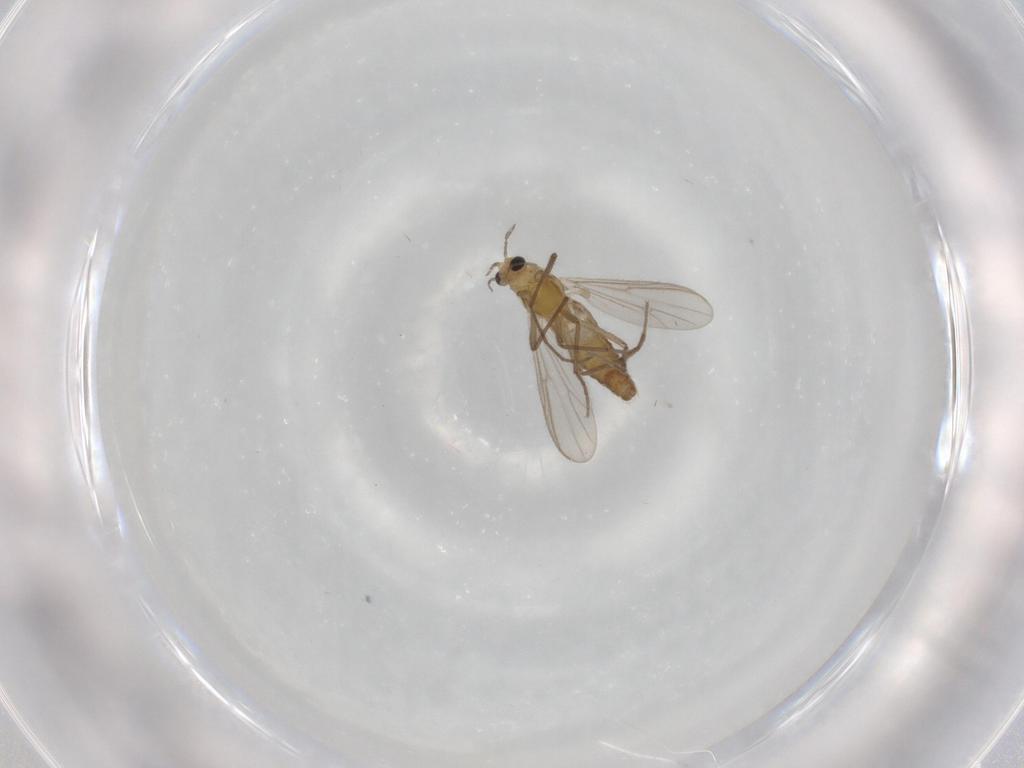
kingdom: Animalia
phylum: Arthropoda
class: Insecta
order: Diptera
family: Chironomidae
